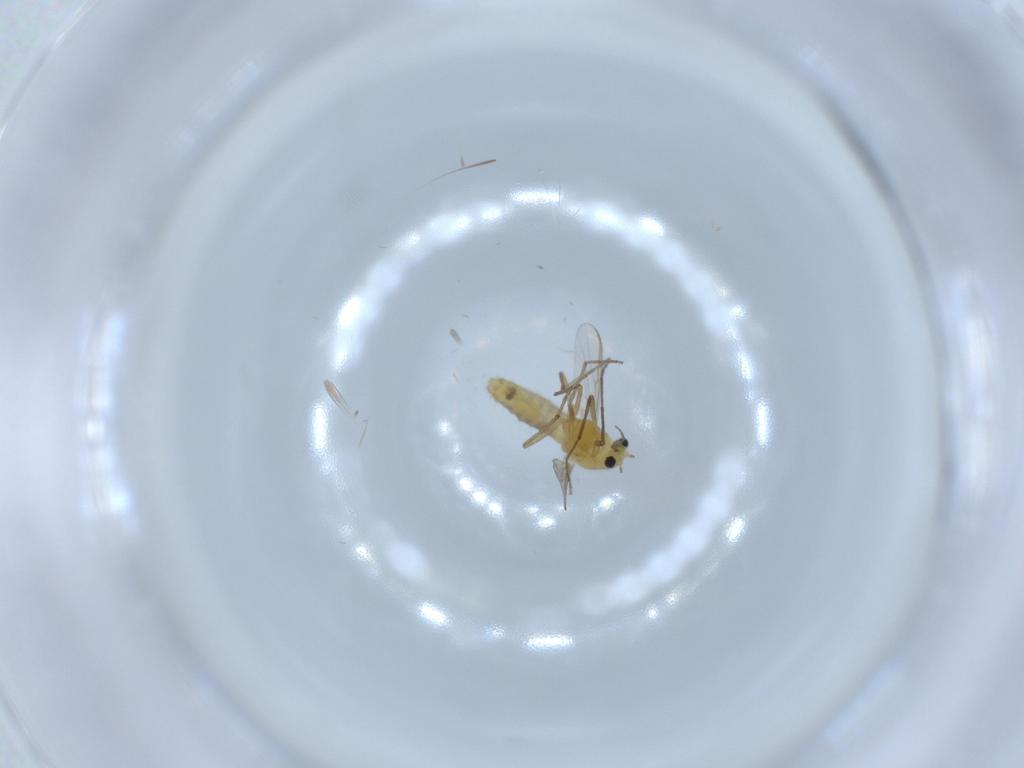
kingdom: Animalia
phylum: Arthropoda
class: Insecta
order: Diptera
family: Chironomidae
